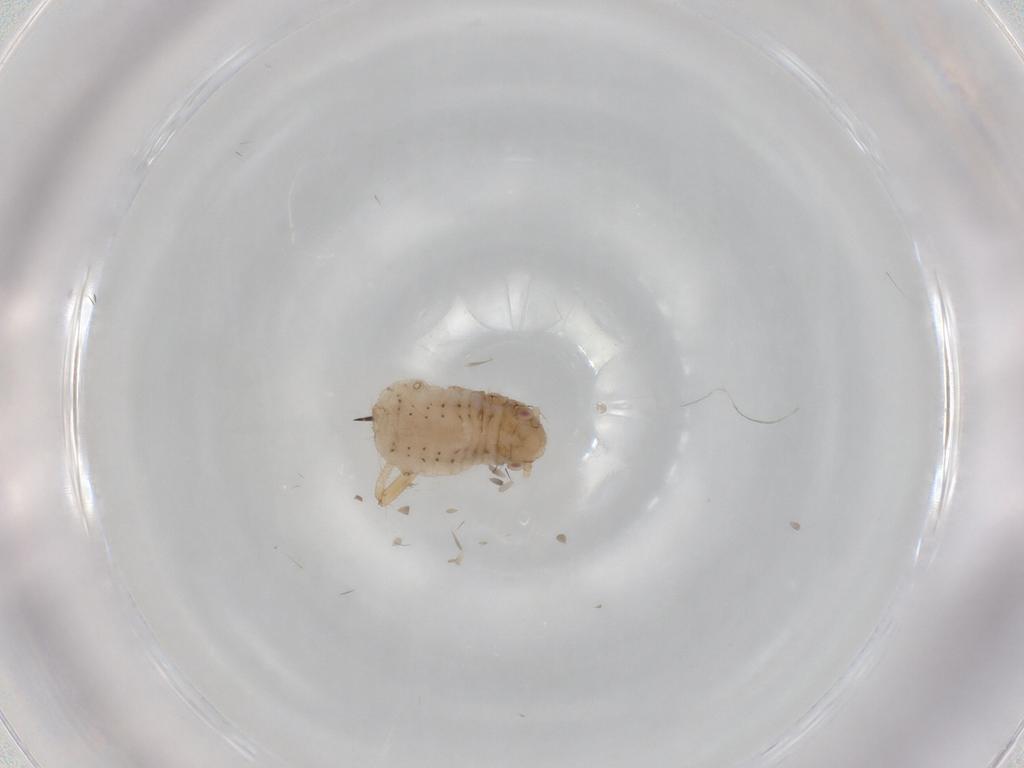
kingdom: Animalia
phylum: Arthropoda
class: Insecta
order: Hemiptera
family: Aphididae
